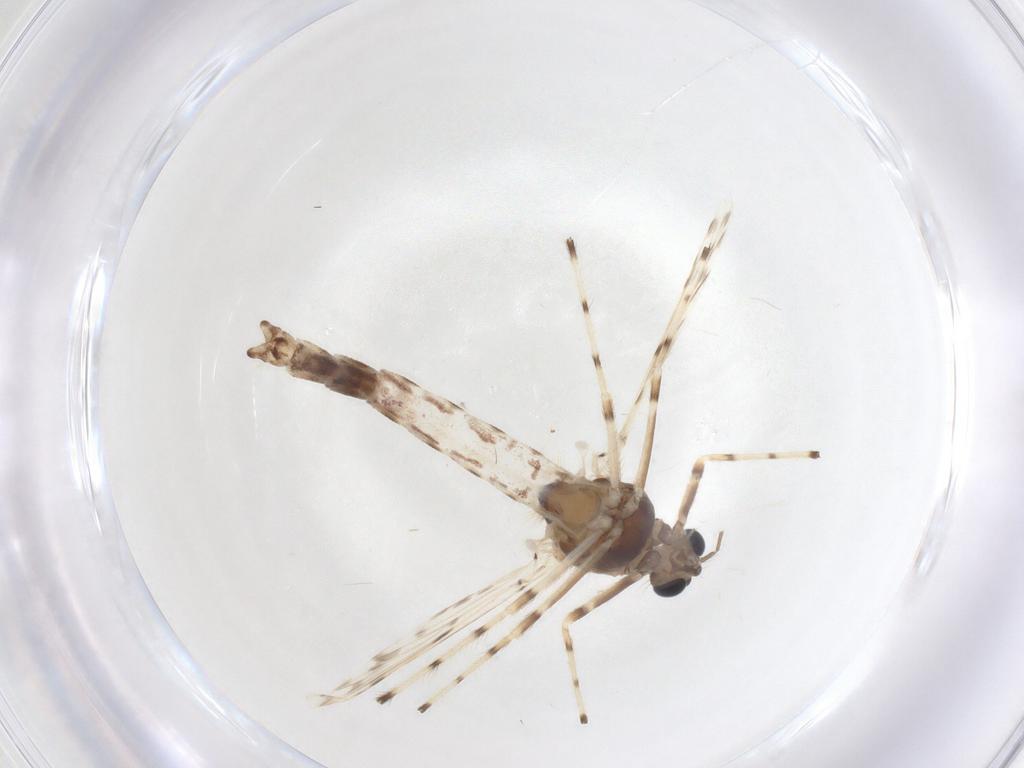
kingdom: Animalia
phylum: Arthropoda
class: Insecta
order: Diptera
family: Chironomidae
